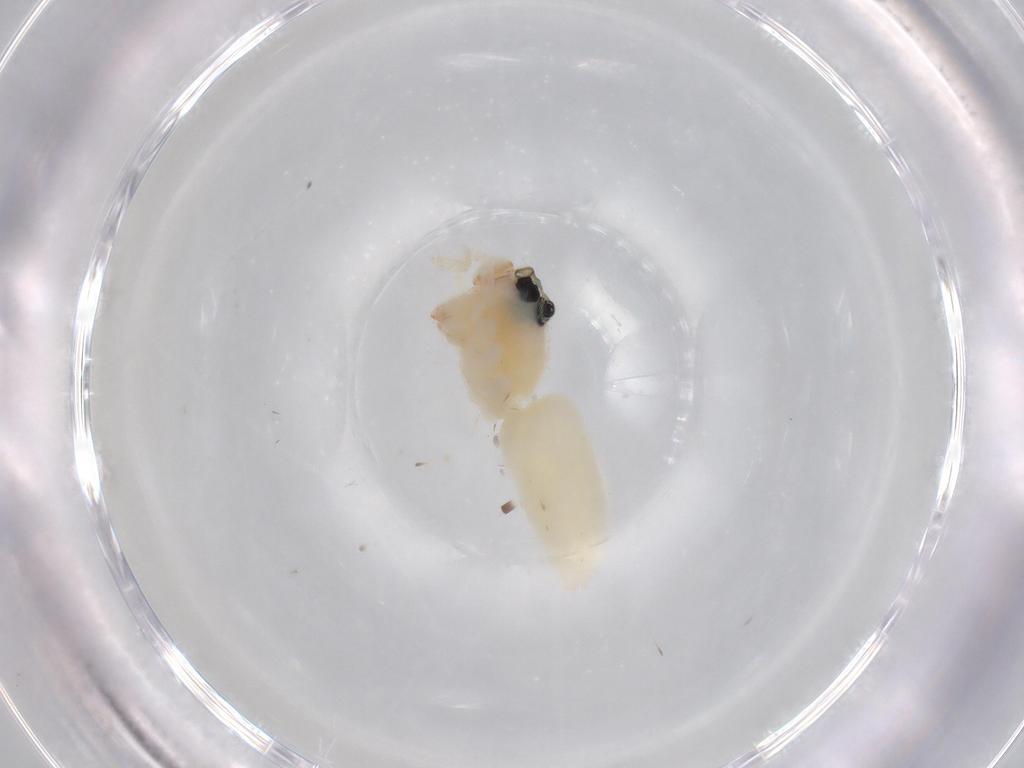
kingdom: Animalia
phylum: Arthropoda
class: Arachnida
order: Araneae
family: Salticidae
